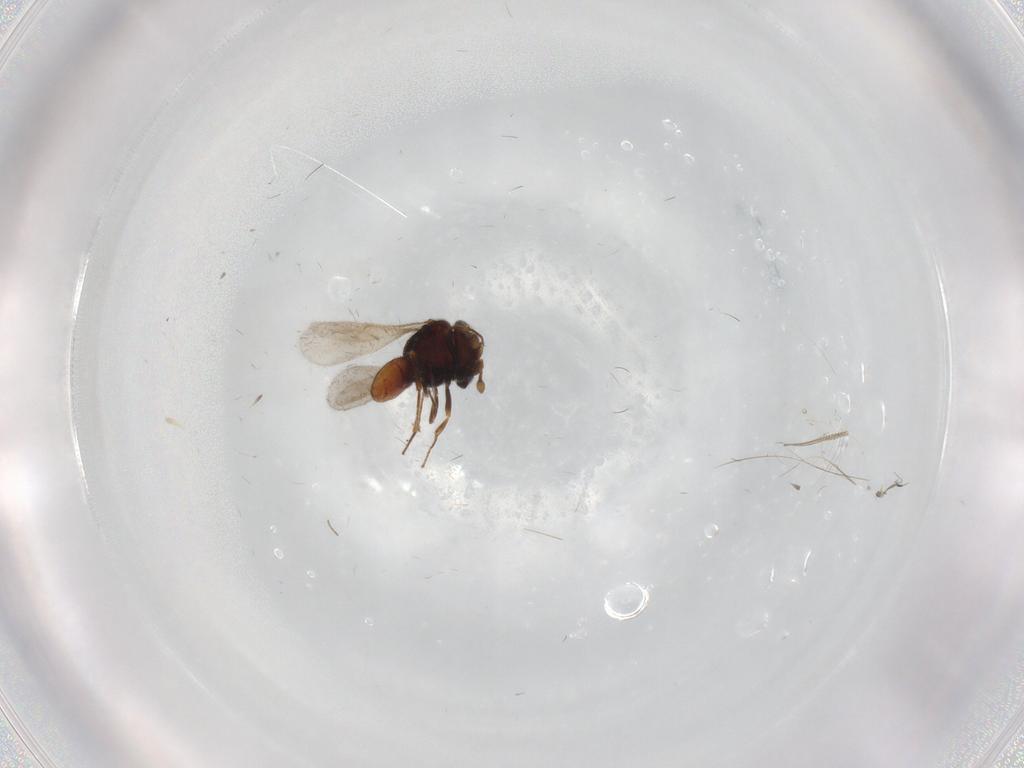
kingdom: Animalia
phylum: Arthropoda
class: Insecta
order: Hymenoptera
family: Scelionidae
